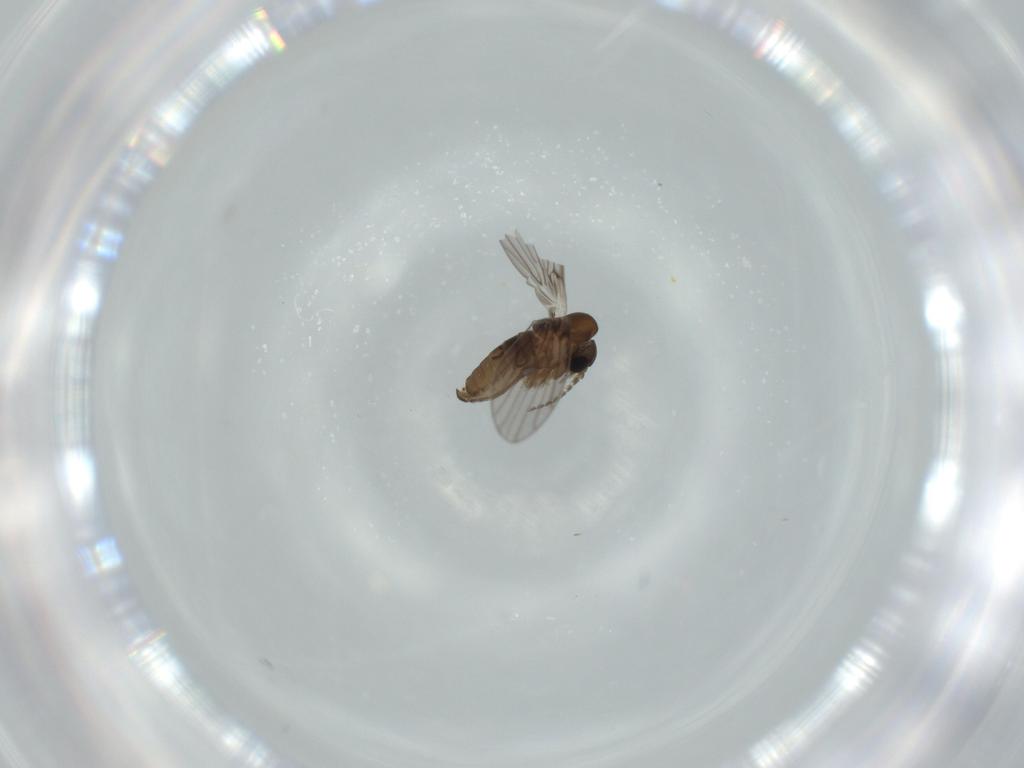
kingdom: Animalia
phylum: Arthropoda
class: Insecta
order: Diptera
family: Psychodidae
